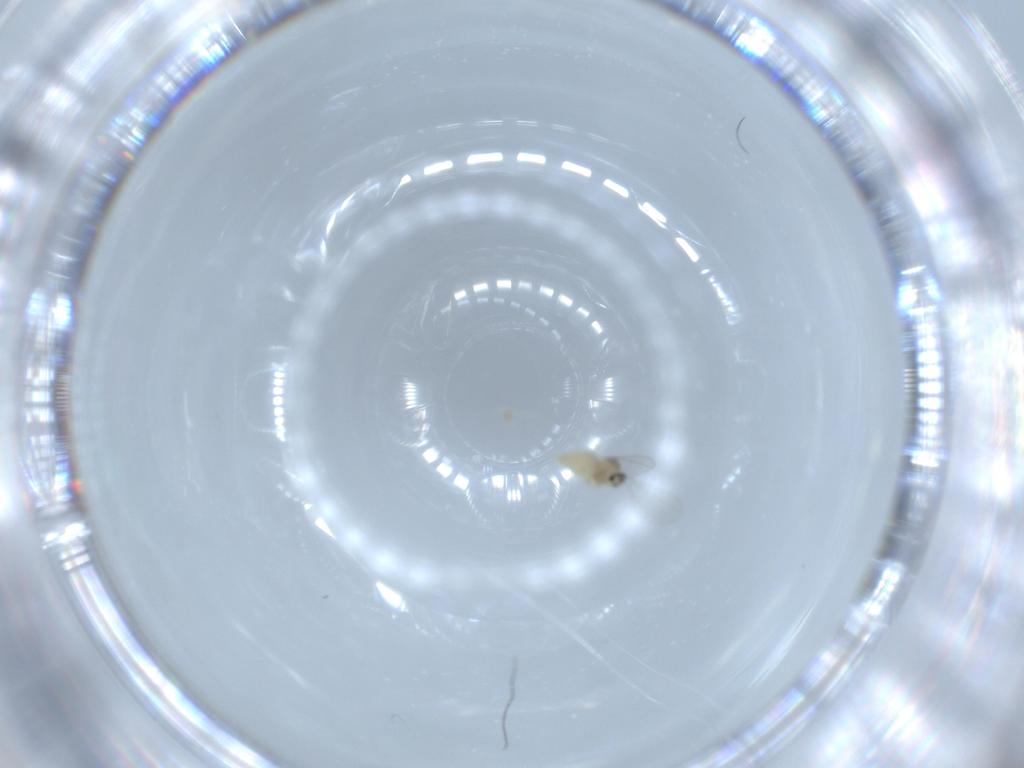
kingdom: Animalia
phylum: Arthropoda
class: Insecta
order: Diptera
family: Cecidomyiidae
